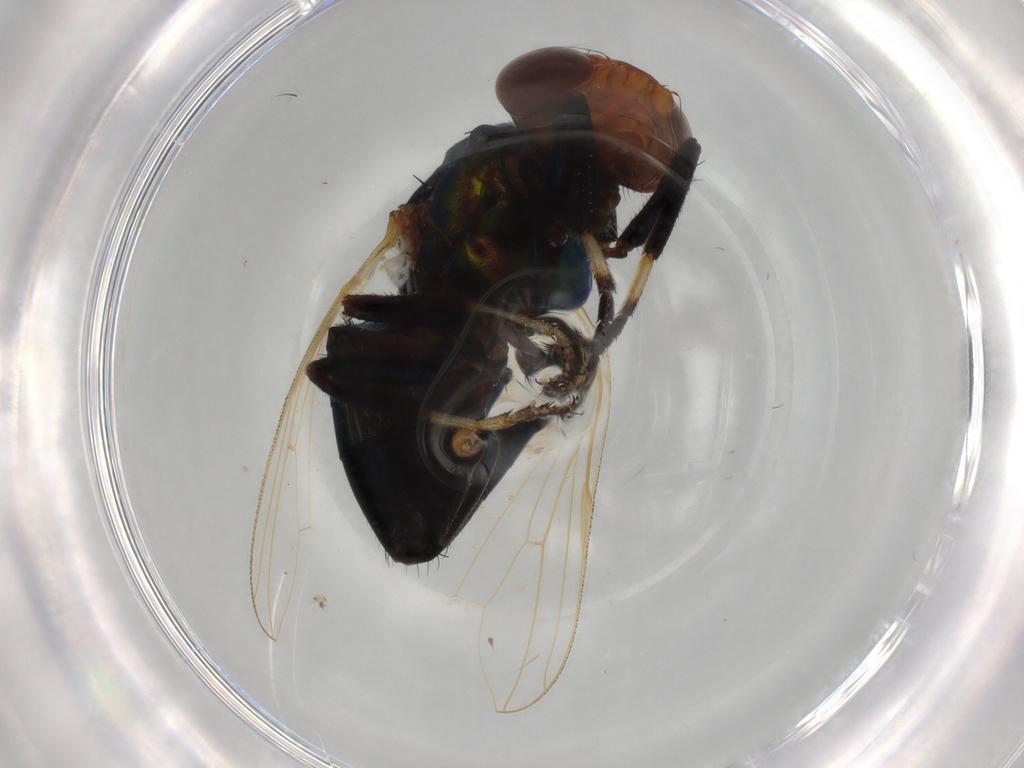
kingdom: Animalia
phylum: Arthropoda
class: Insecta
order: Diptera
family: Ulidiidae
